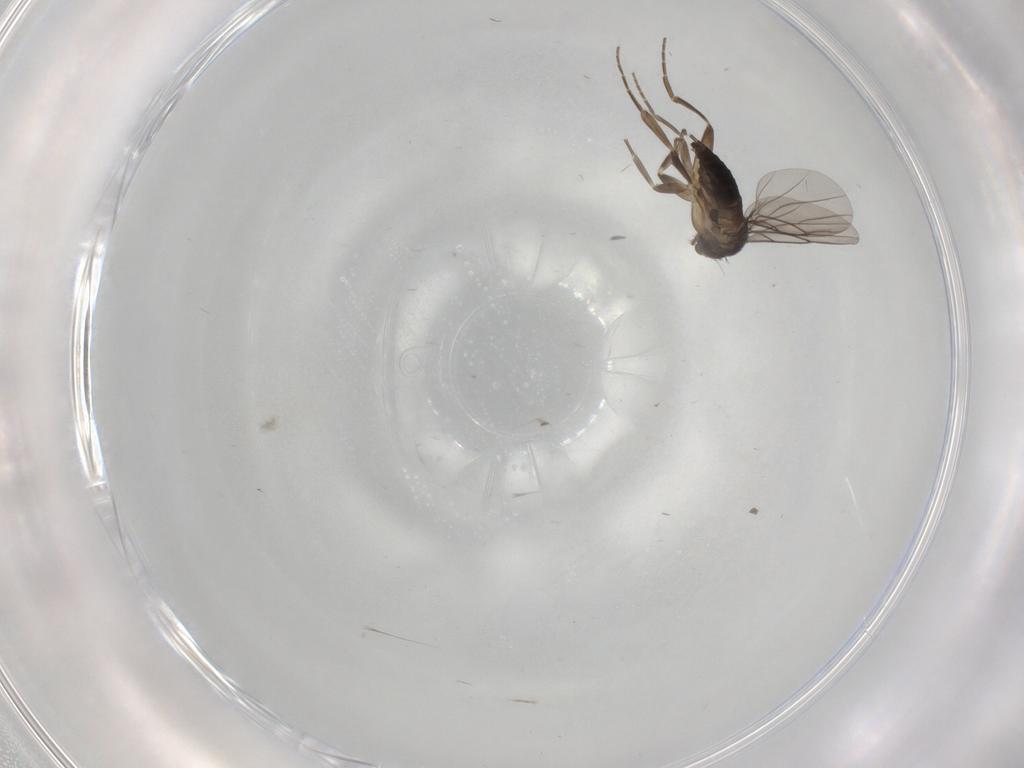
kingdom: Animalia
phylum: Arthropoda
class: Insecta
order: Diptera
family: Phoridae
